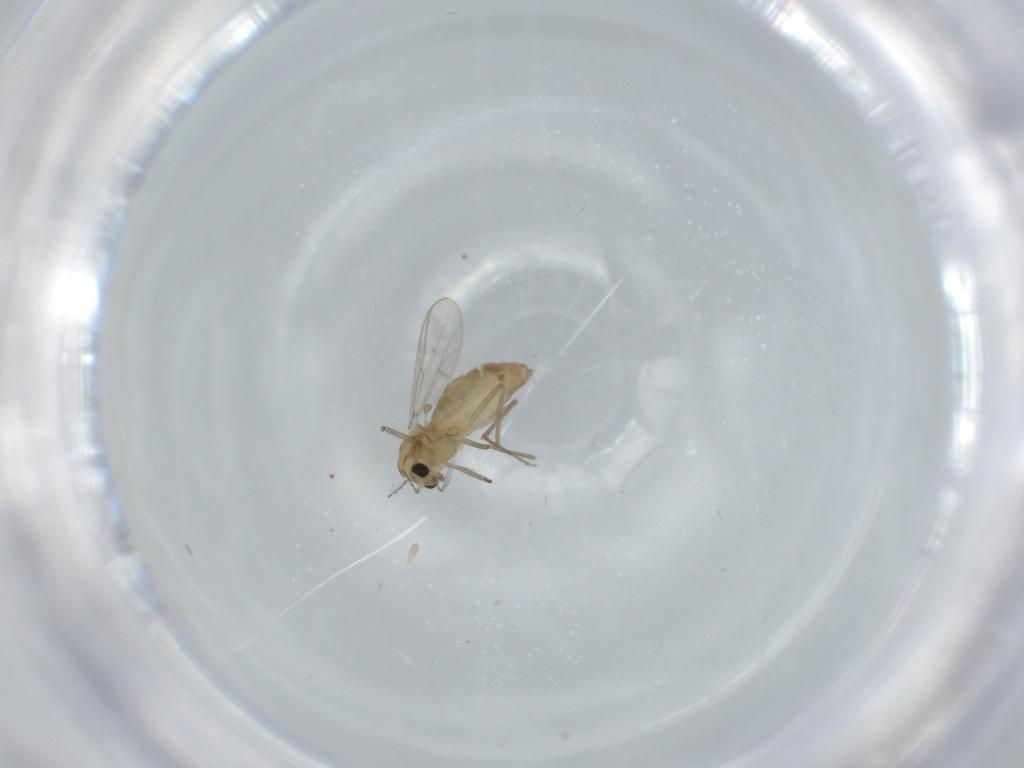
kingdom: Animalia
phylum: Arthropoda
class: Insecta
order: Diptera
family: Chironomidae
